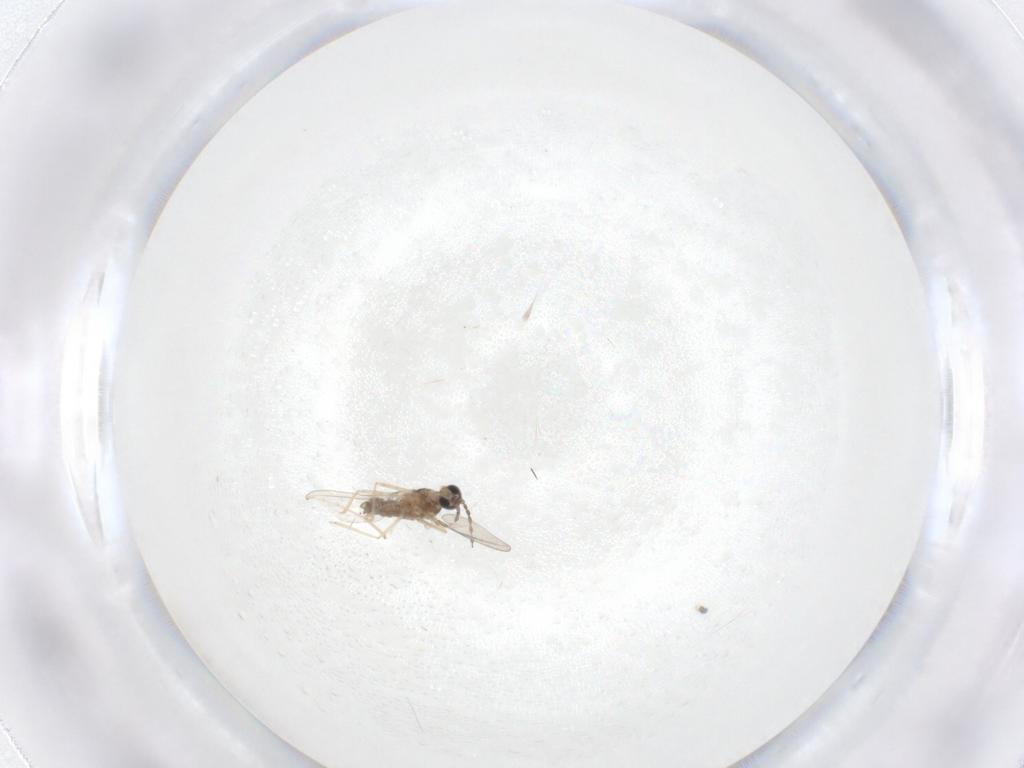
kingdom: Animalia
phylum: Arthropoda
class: Insecta
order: Diptera
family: Cecidomyiidae
